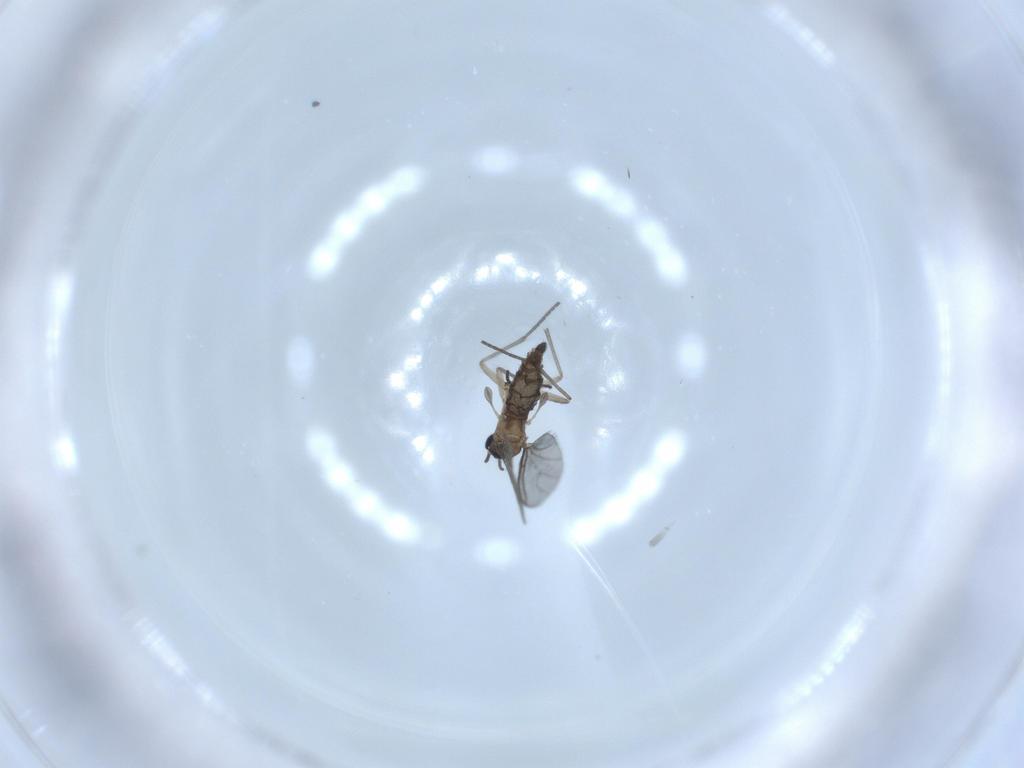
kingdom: Animalia
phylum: Arthropoda
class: Insecta
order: Diptera
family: Sciaridae
